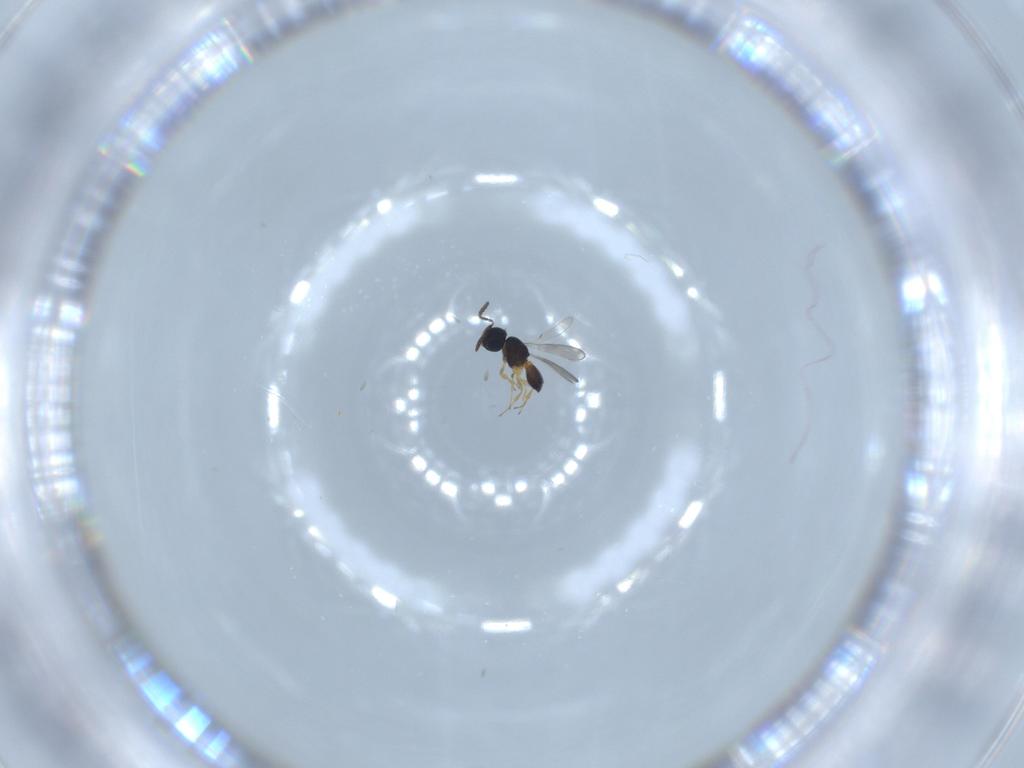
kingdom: Animalia
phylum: Arthropoda
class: Insecta
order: Hymenoptera
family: Scelionidae
